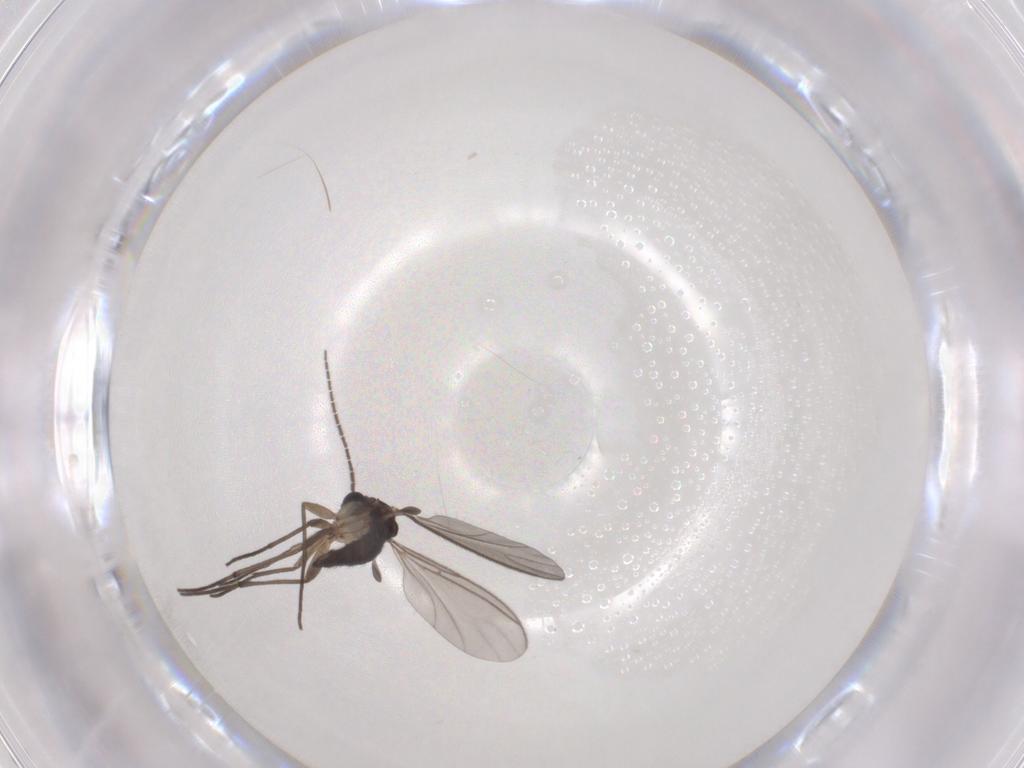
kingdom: Animalia
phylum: Arthropoda
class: Insecta
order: Diptera
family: Sciaridae
